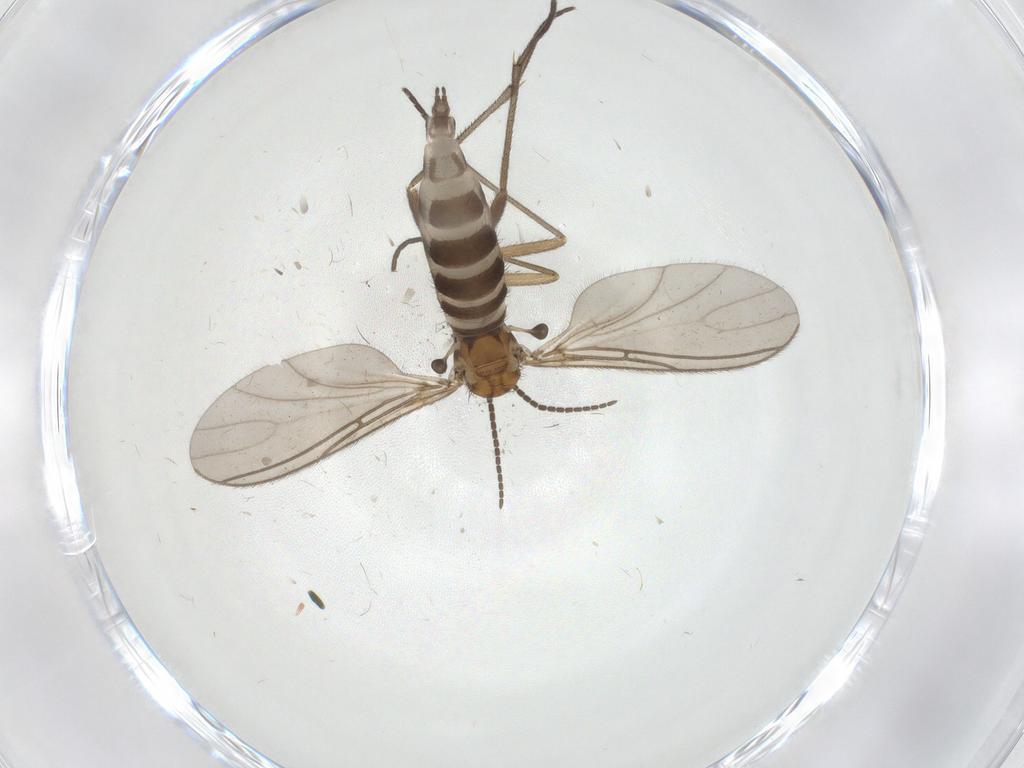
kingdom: Animalia
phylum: Arthropoda
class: Insecta
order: Diptera
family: Sciaridae
